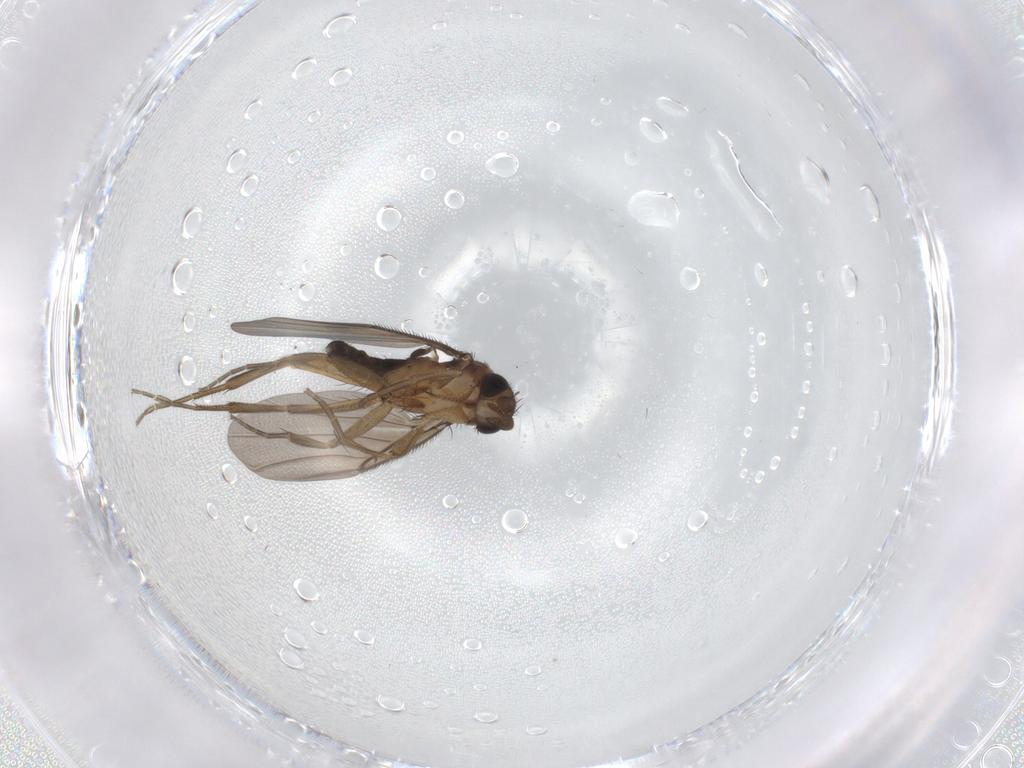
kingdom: Animalia
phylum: Arthropoda
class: Insecta
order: Diptera
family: Phoridae
